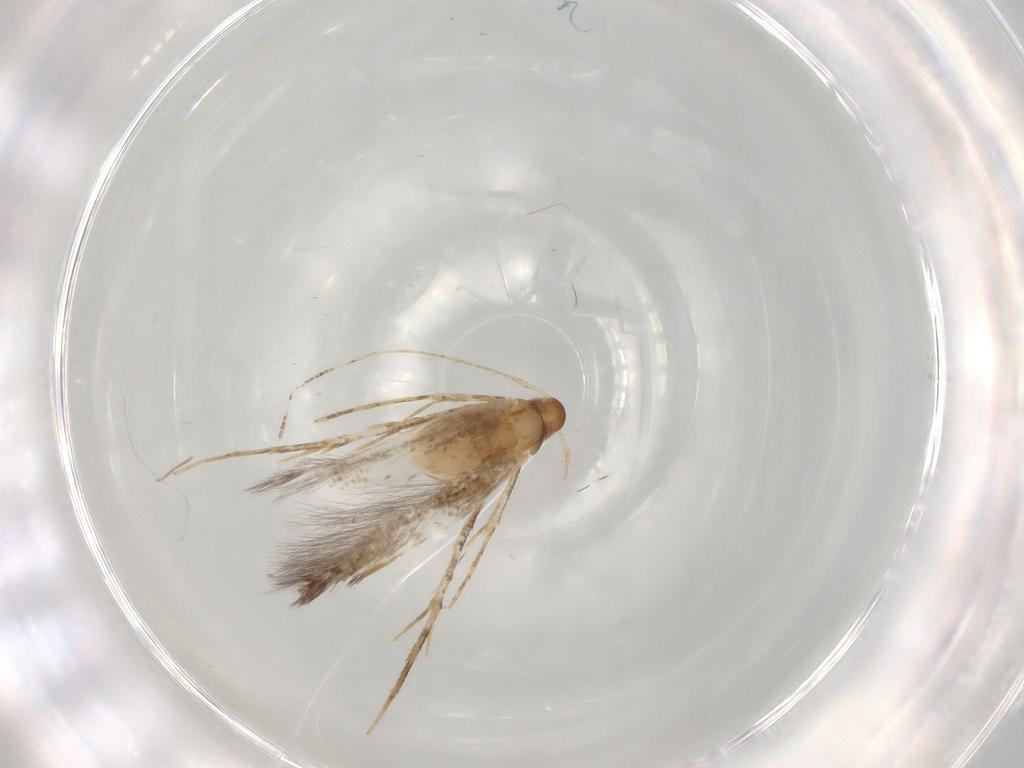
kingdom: Animalia
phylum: Arthropoda
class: Insecta
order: Lepidoptera
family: Cosmopterigidae
